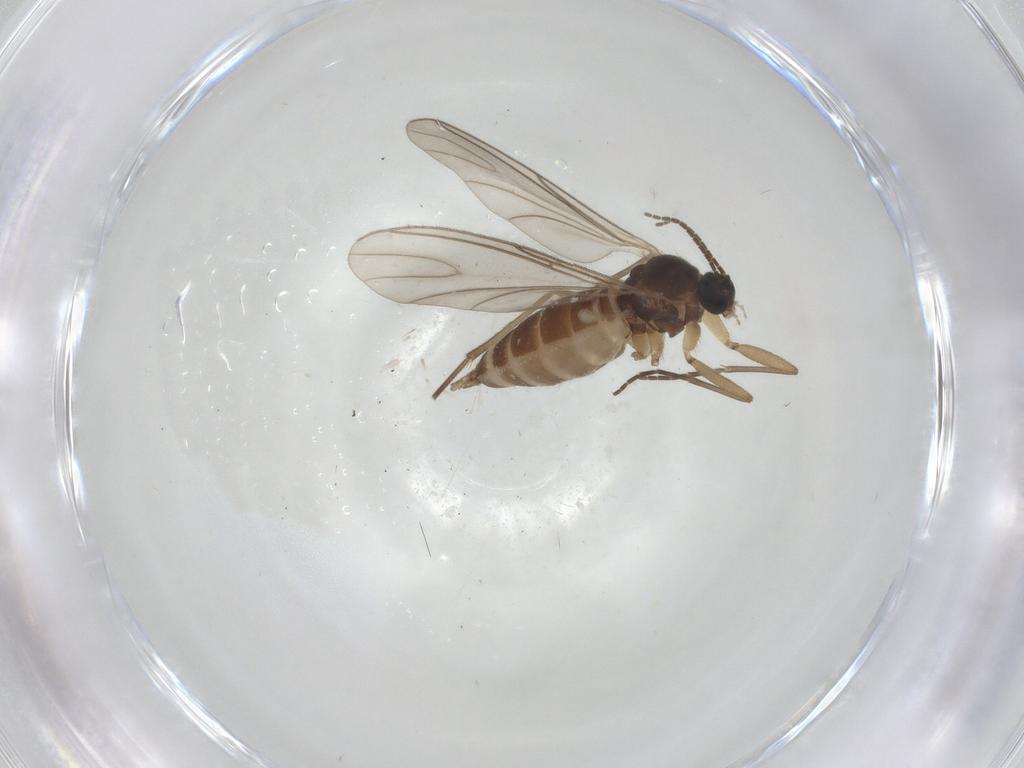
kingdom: Animalia
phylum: Arthropoda
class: Insecta
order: Diptera
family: Sciaridae
